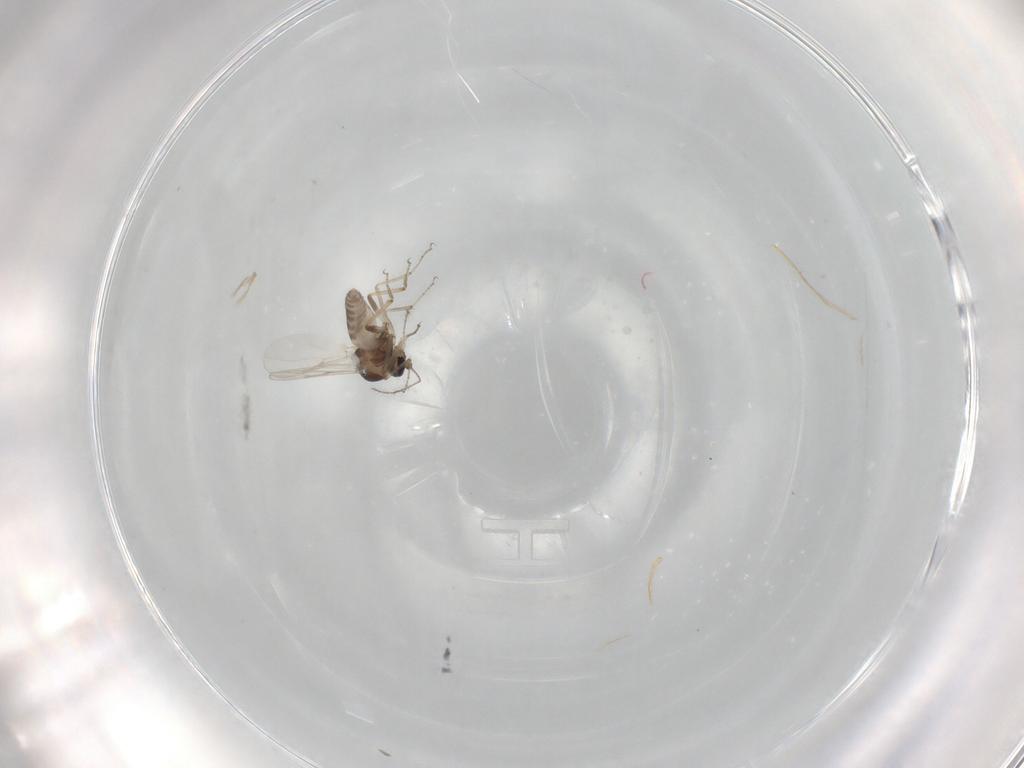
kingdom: Animalia
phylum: Arthropoda
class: Insecta
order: Diptera
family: Ceratopogonidae
